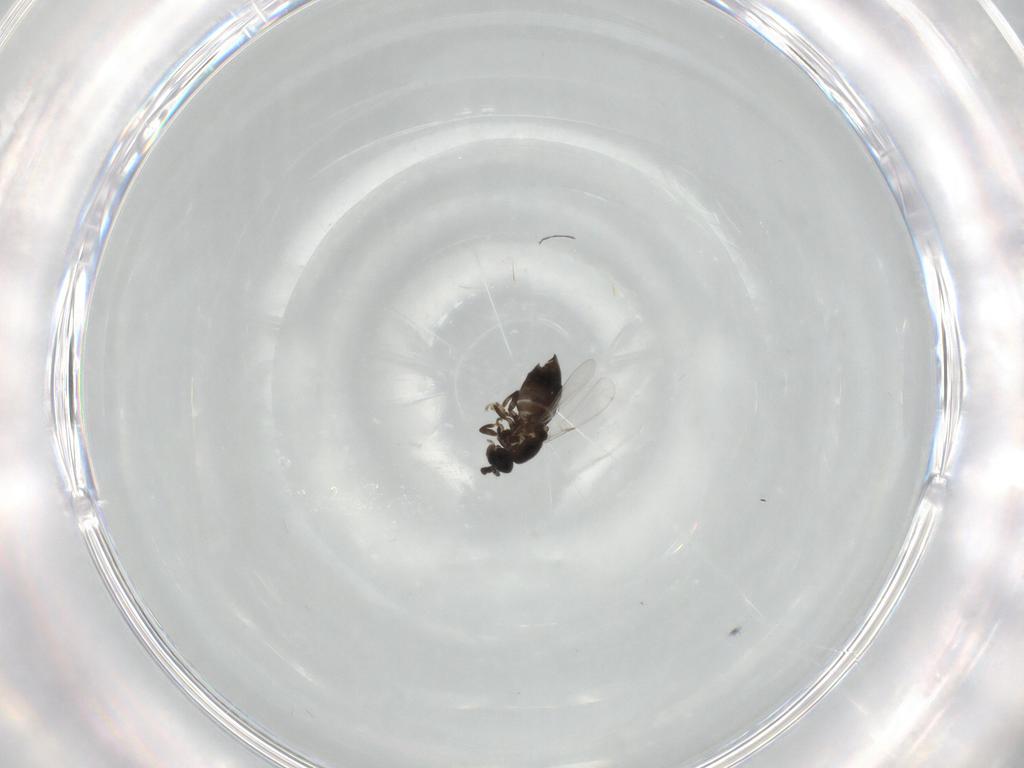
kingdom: Animalia
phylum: Arthropoda
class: Insecta
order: Diptera
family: Scatopsidae
